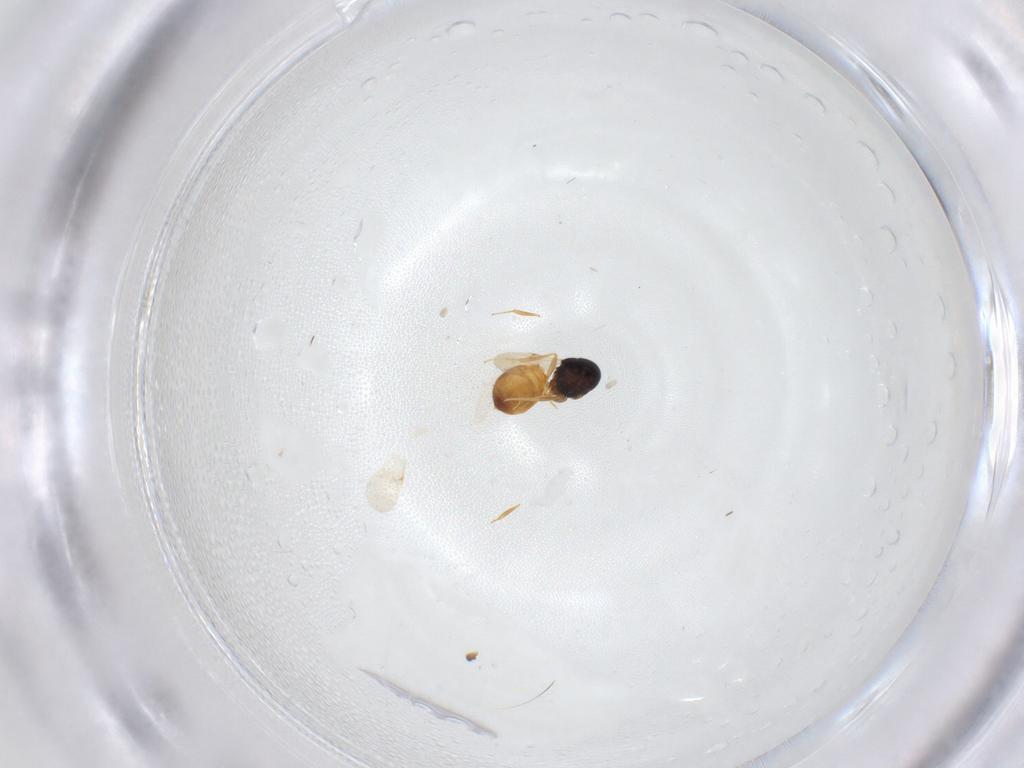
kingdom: Animalia
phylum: Arthropoda
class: Insecta
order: Hymenoptera
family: Scelionidae
